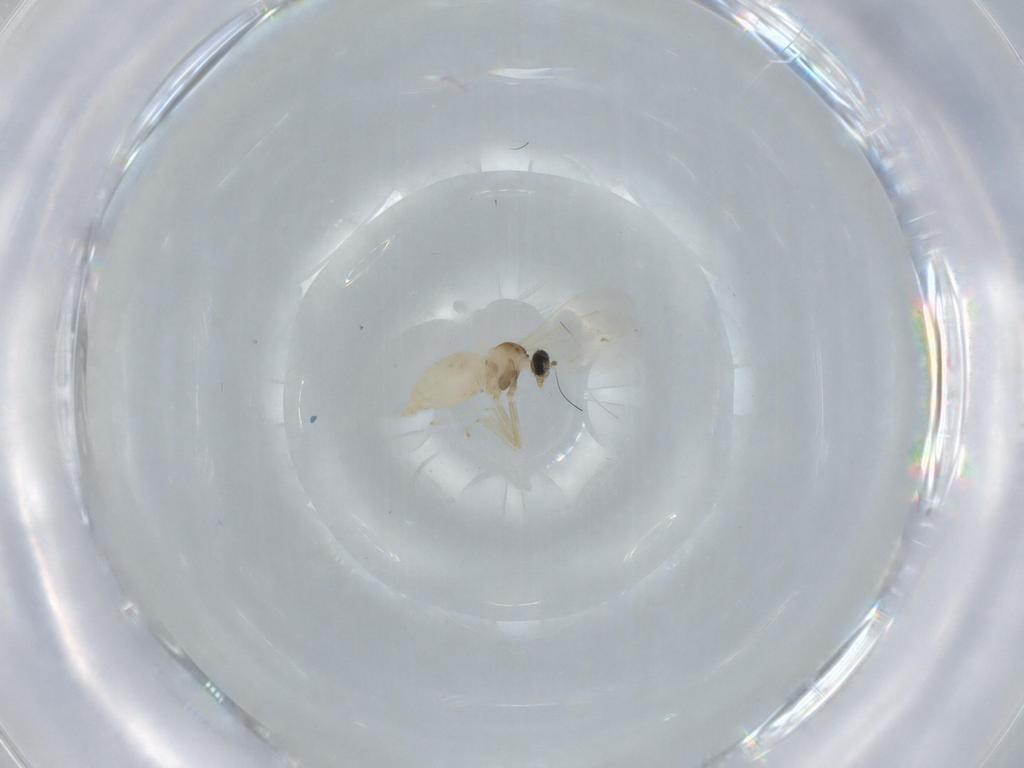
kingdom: Animalia
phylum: Arthropoda
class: Insecta
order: Diptera
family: Cecidomyiidae
